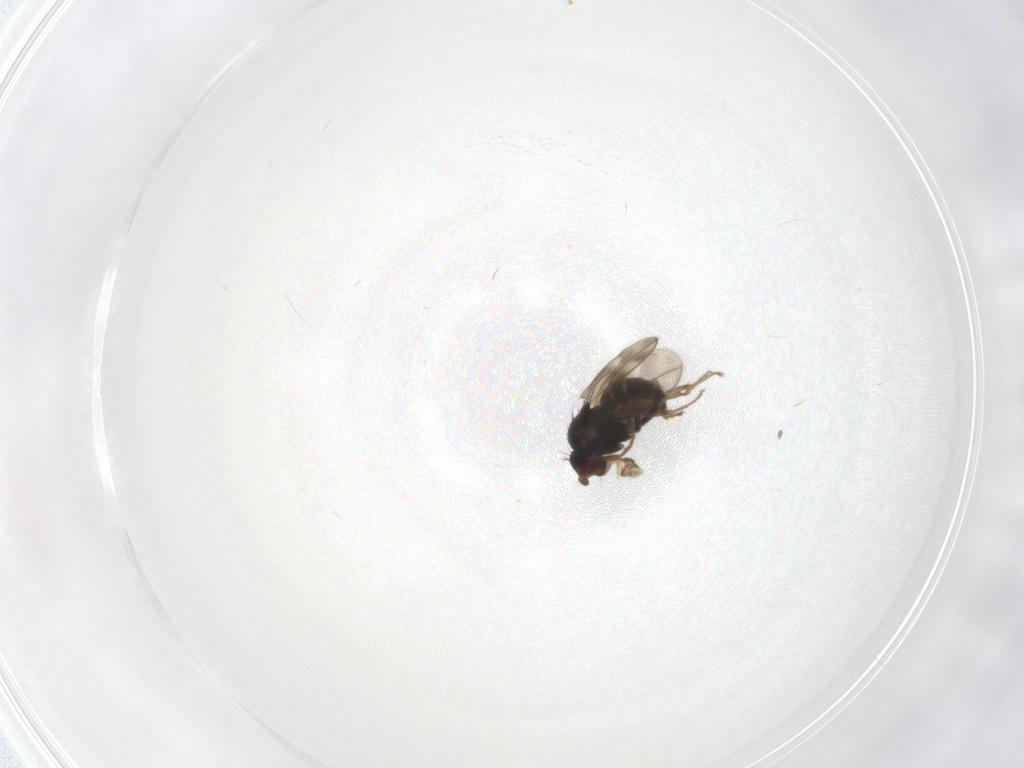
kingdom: Animalia
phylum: Arthropoda
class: Insecta
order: Diptera
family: Sphaeroceridae
